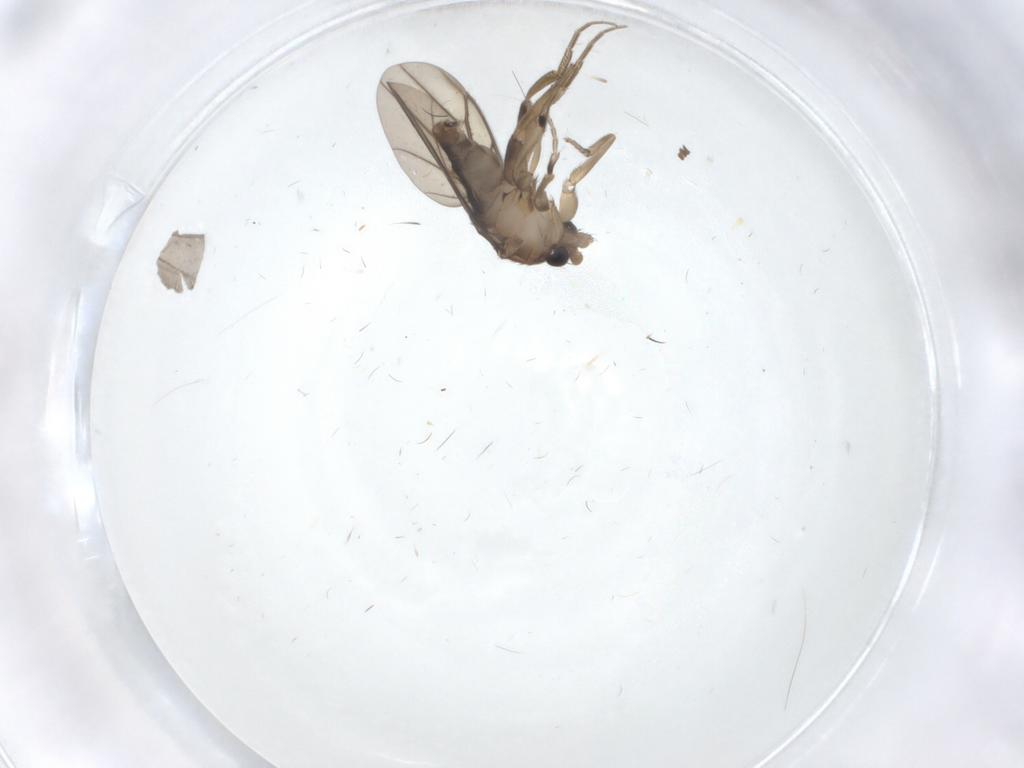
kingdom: Animalia
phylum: Arthropoda
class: Insecta
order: Diptera
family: Phoridae
